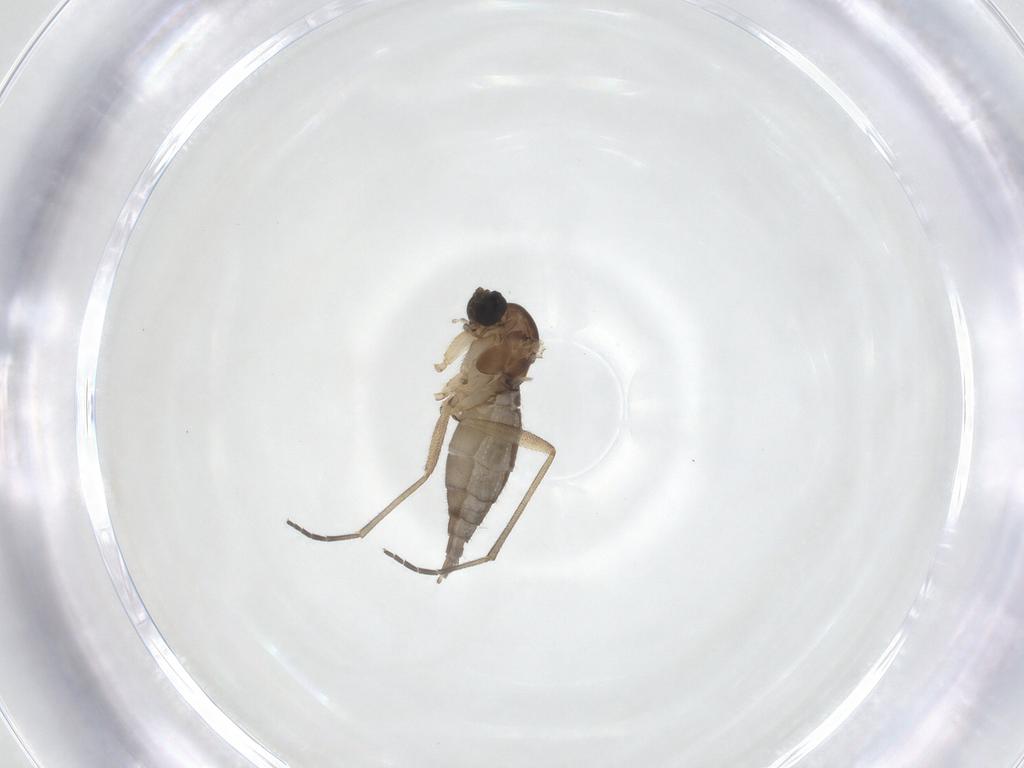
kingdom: Animalia
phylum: Arthropoda
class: Insecta
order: Diptera
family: Sciaridae
